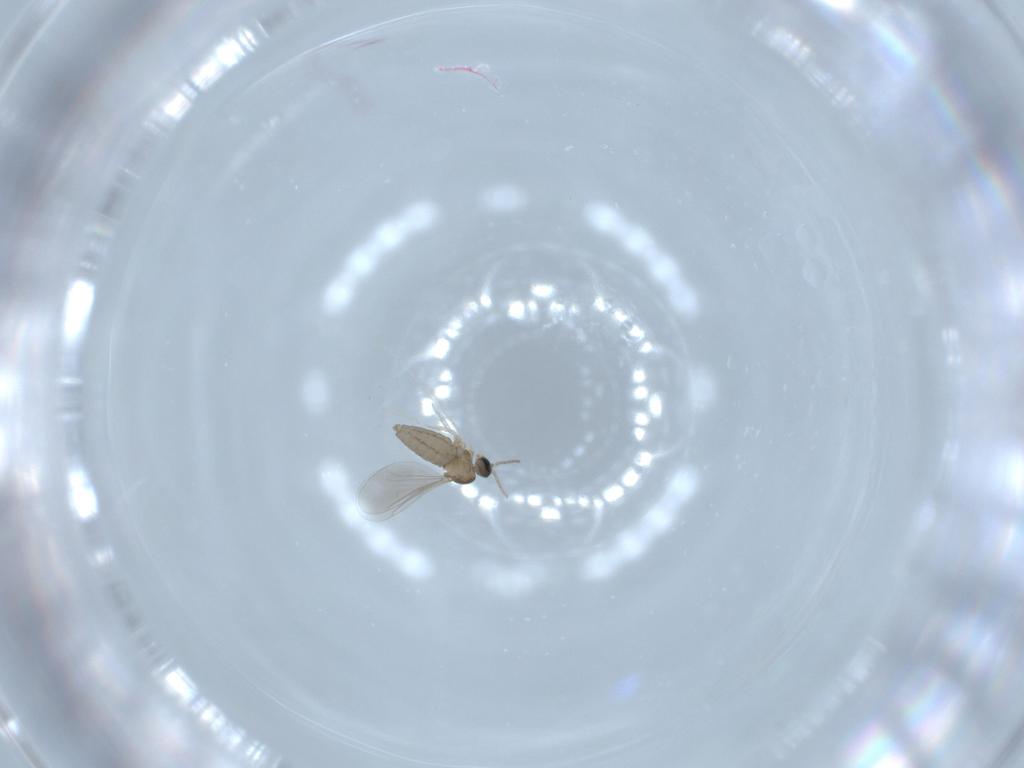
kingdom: Animalia
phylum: Arthropoda
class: Insecta
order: Diptera
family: Cecidomyiidae
